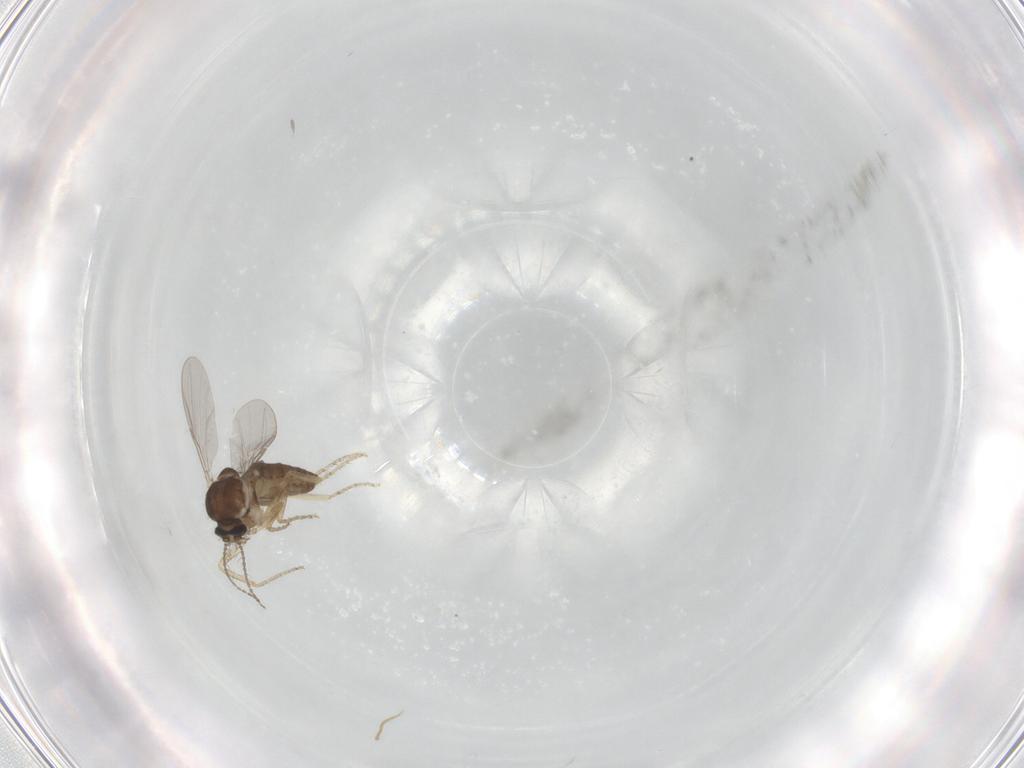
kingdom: Animalia
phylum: Arthropoda
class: Insecta
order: Diptera
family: Ceratopogonidae
